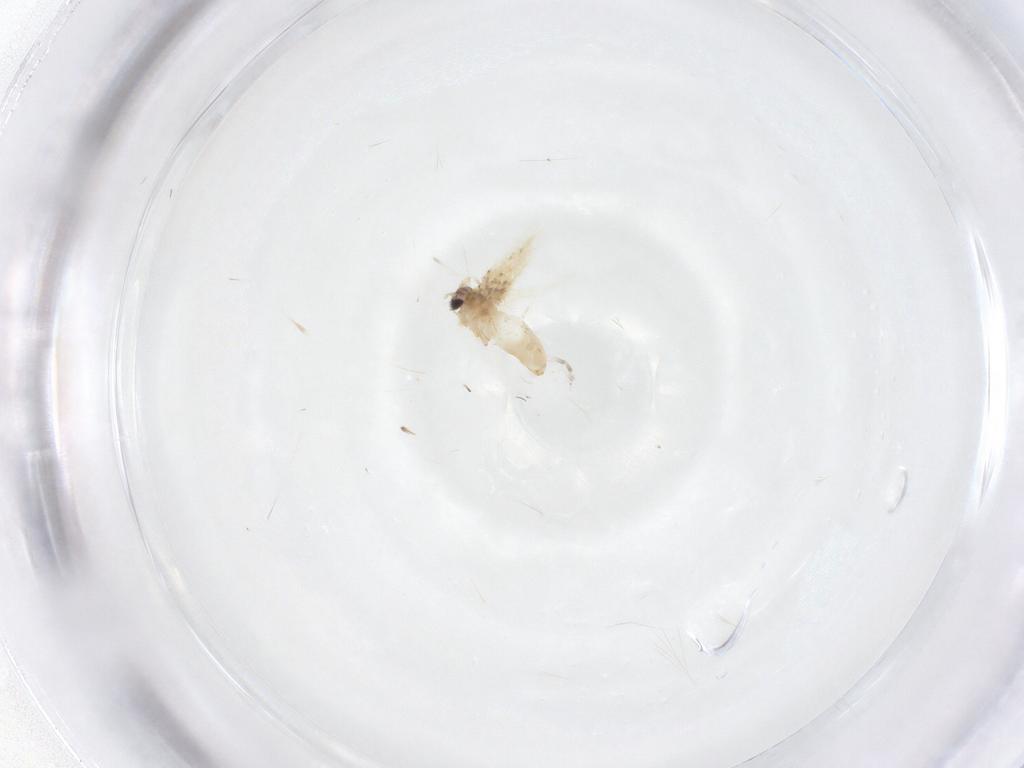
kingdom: Animalia
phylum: Arthropoda
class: Insecta
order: Lepidoptera
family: Crambidae
